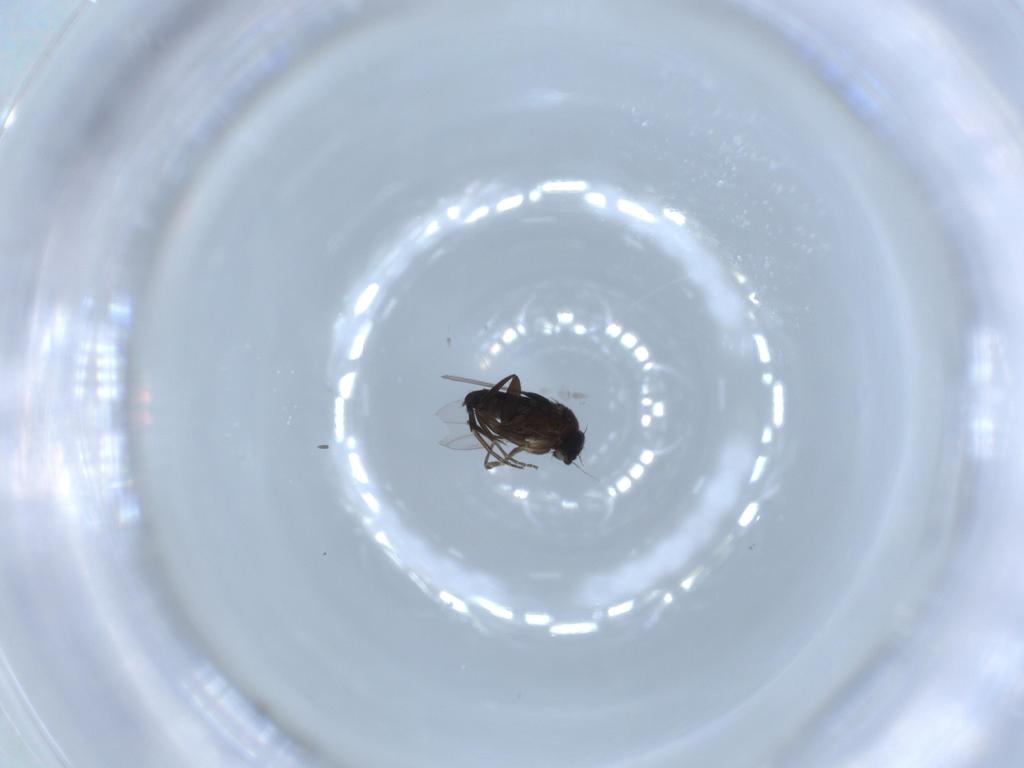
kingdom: Animalia
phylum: Arthropoda
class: Insecta
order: Diptera
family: Phoridae
